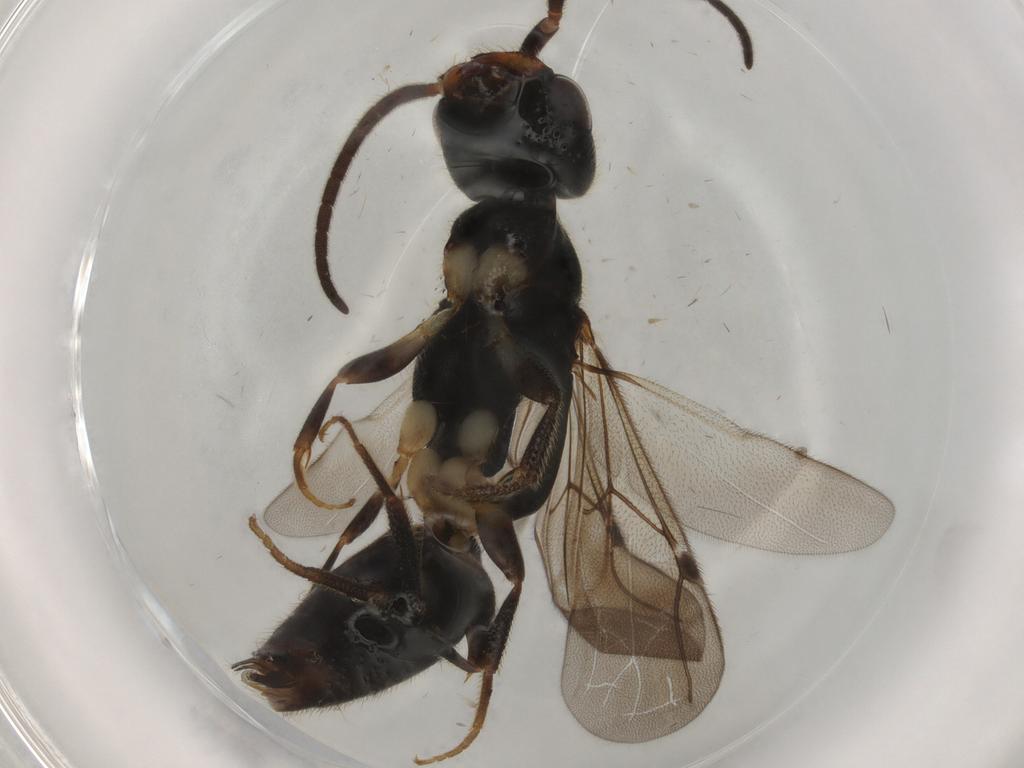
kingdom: Animalia
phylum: Arthropoda
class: Insecta
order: Hymenoptera
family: Bethylidae
